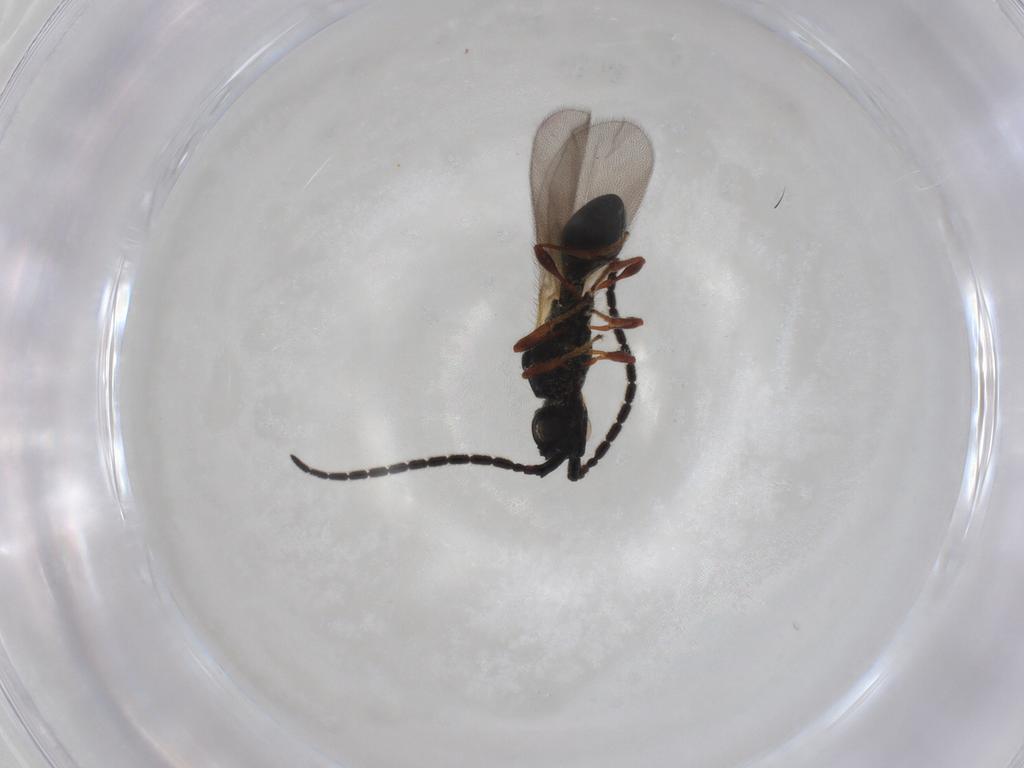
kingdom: Animalia
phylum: Arthropoda
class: Insecta
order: Hymenoptera
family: Diapriidae
